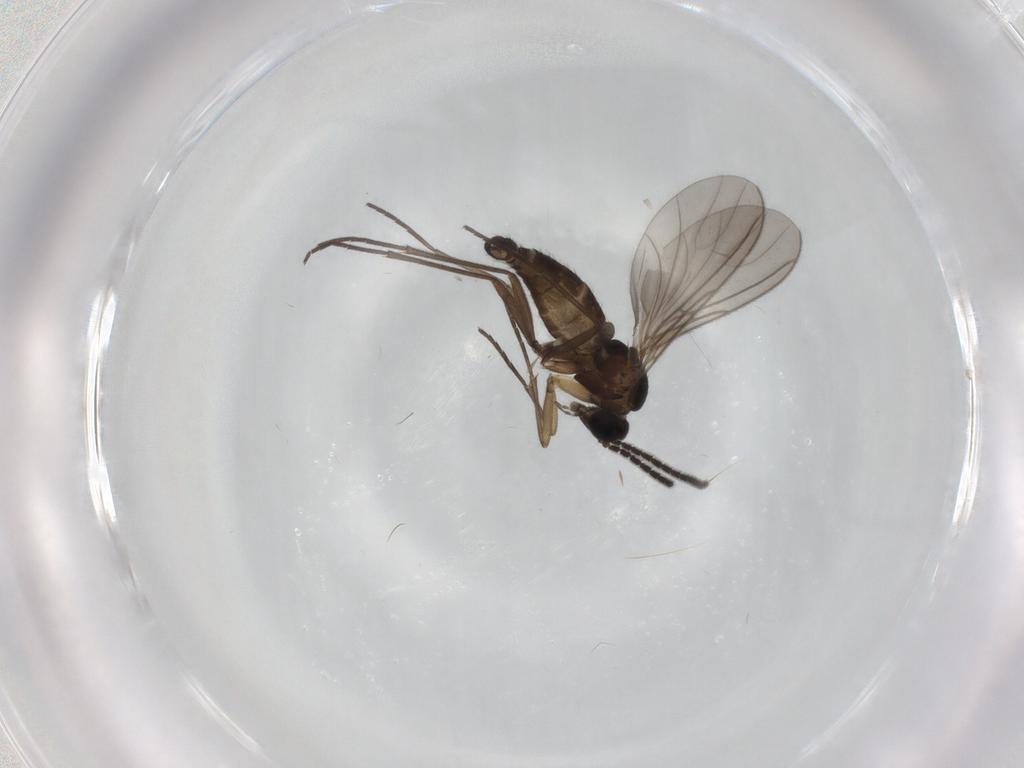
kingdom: Animalia
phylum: Arthropoda
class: Insecta
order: Diptera
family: Psychodidae
